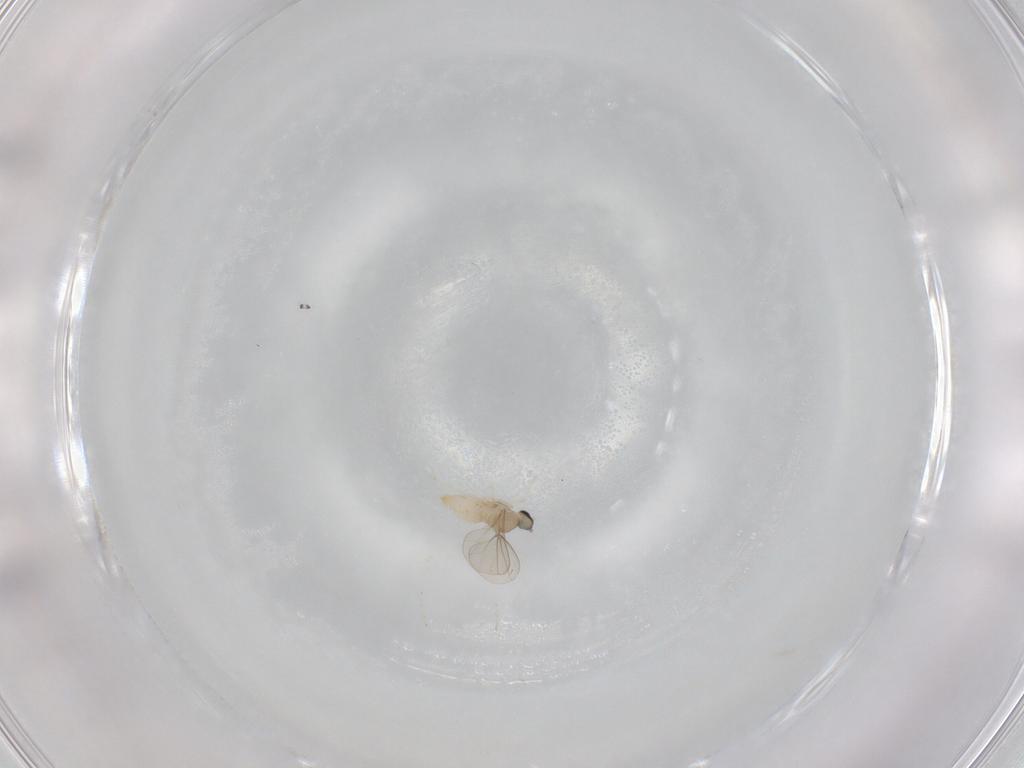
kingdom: Animalia
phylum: Arthropoda
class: Insecta
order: Diptera
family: Cecidomyiidae
